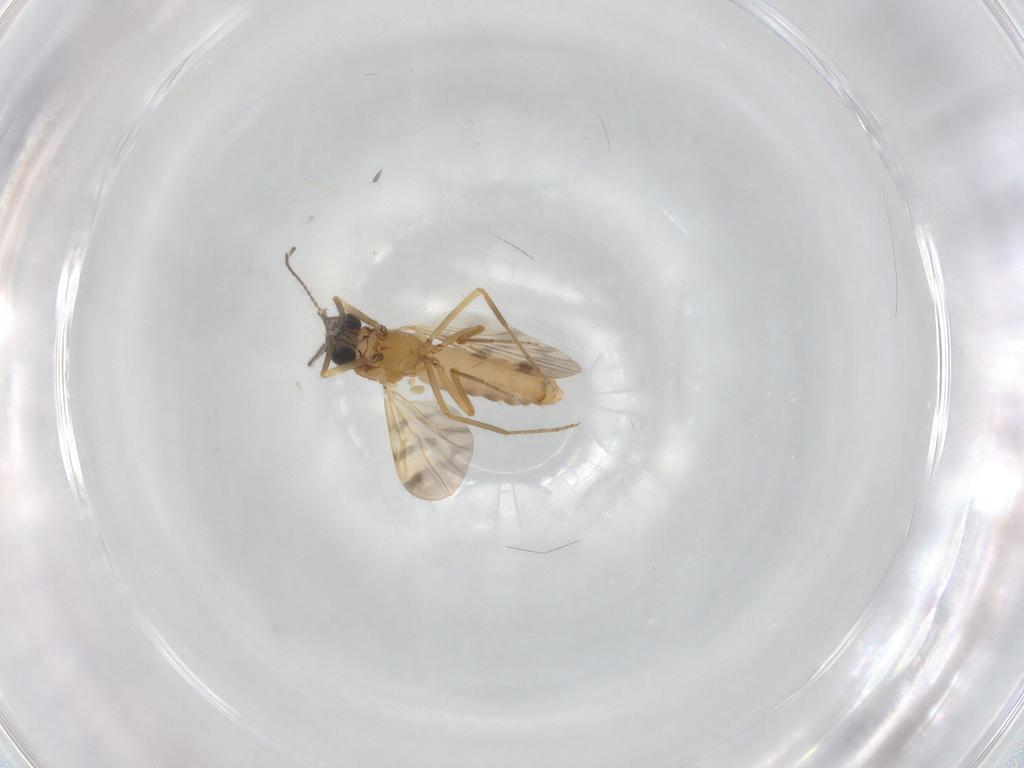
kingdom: Animalia
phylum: Arthropoda
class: Insecta
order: Diptera
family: Ceratopogonidae
